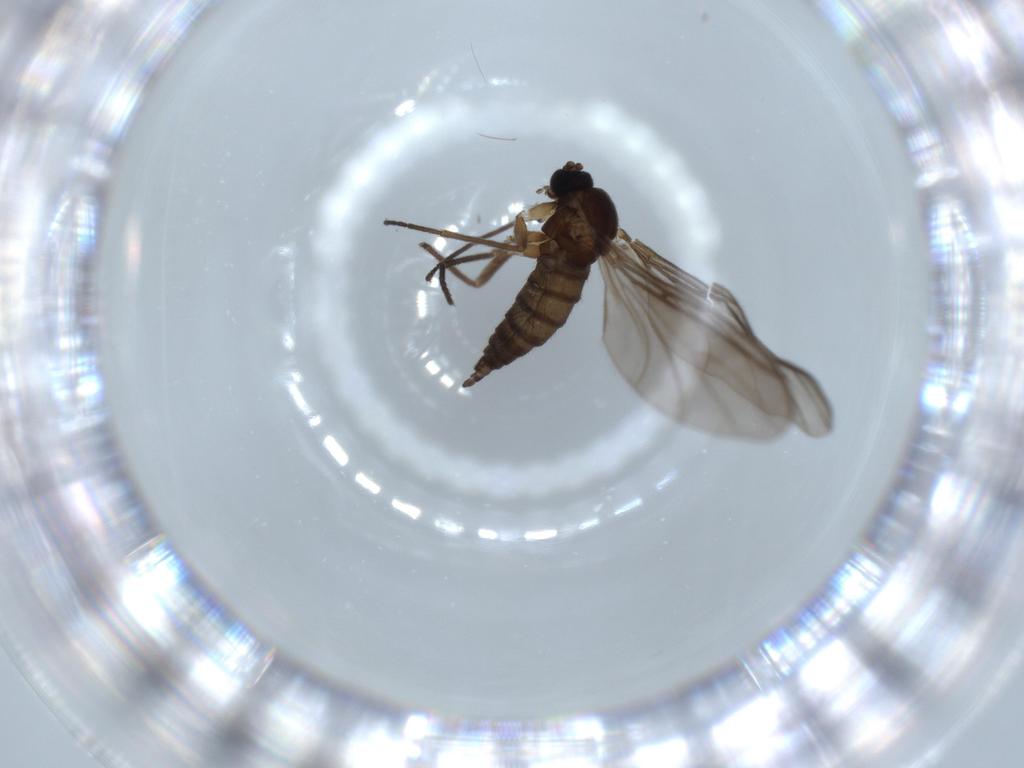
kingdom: Animalia
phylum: Arthropoda
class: Insecta
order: Diptera
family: Sciaridae
